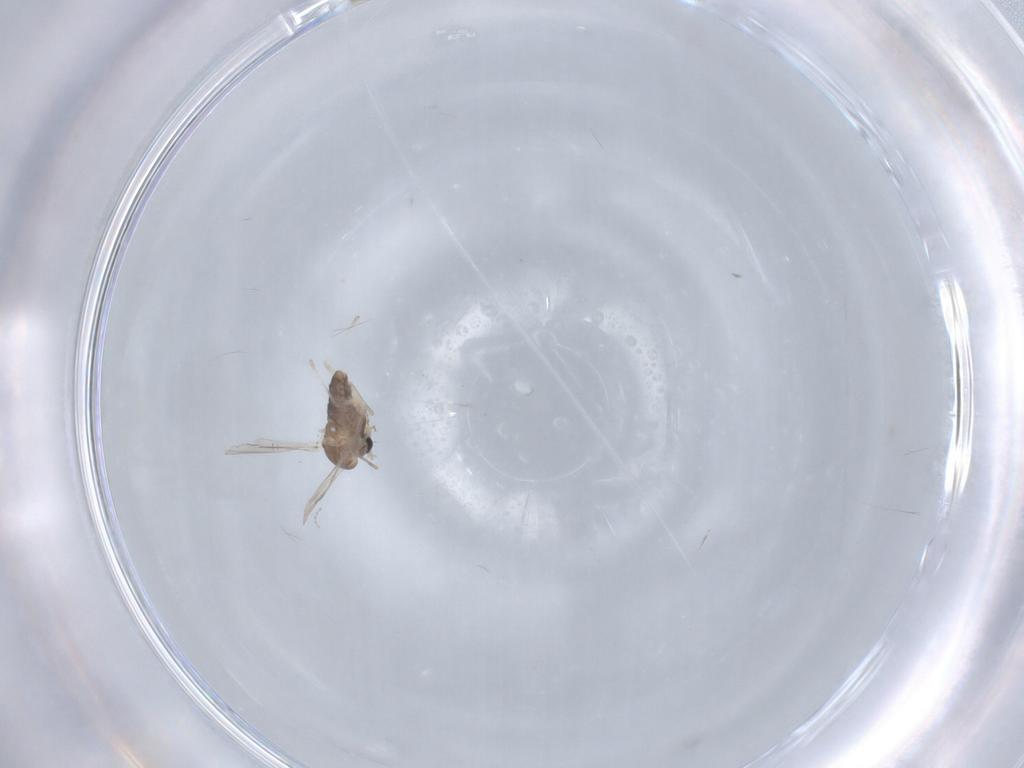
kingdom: Animalia
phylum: Arthropoda
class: Insecta
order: Diptera
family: Chironomidae
